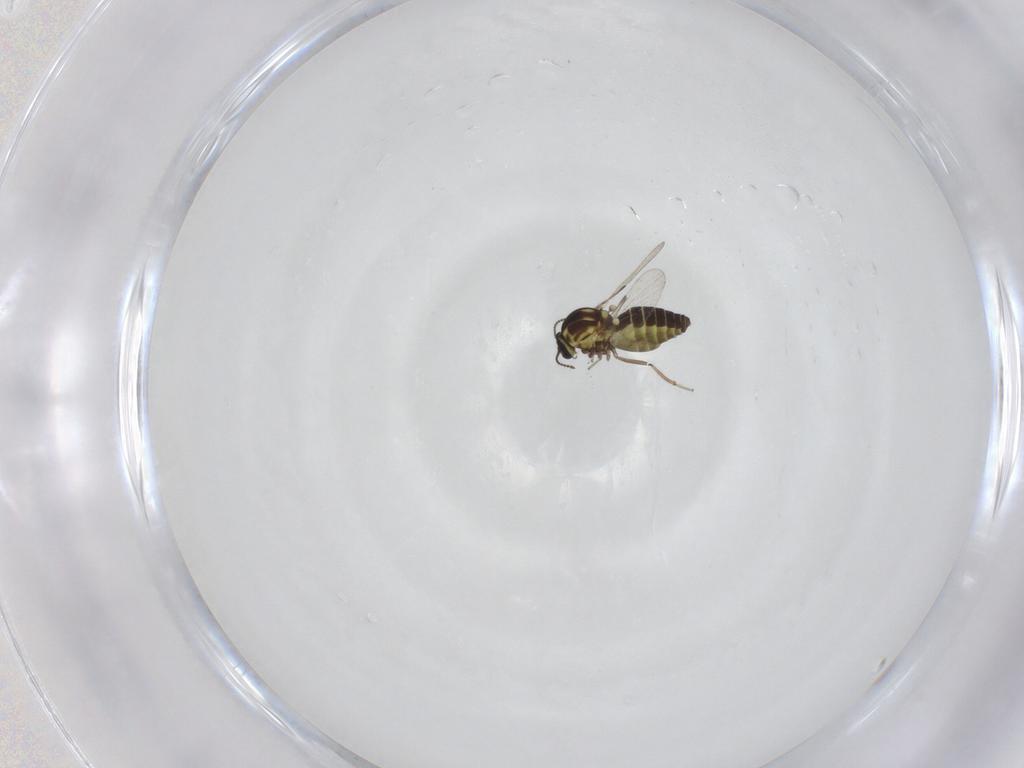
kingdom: Animalia
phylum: Arthropoda
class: Insecta
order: Diptera
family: Ceratopogonidae
